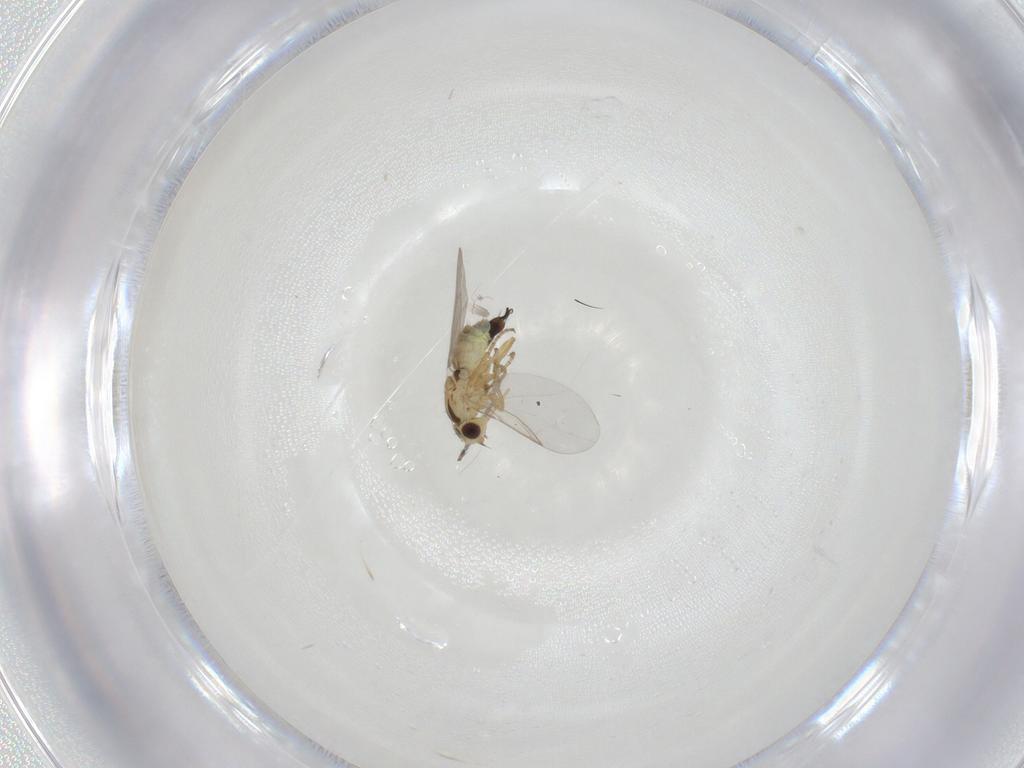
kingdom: Animalia
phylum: Arthropoda
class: Insecta
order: Diptera
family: Agromyzidae
